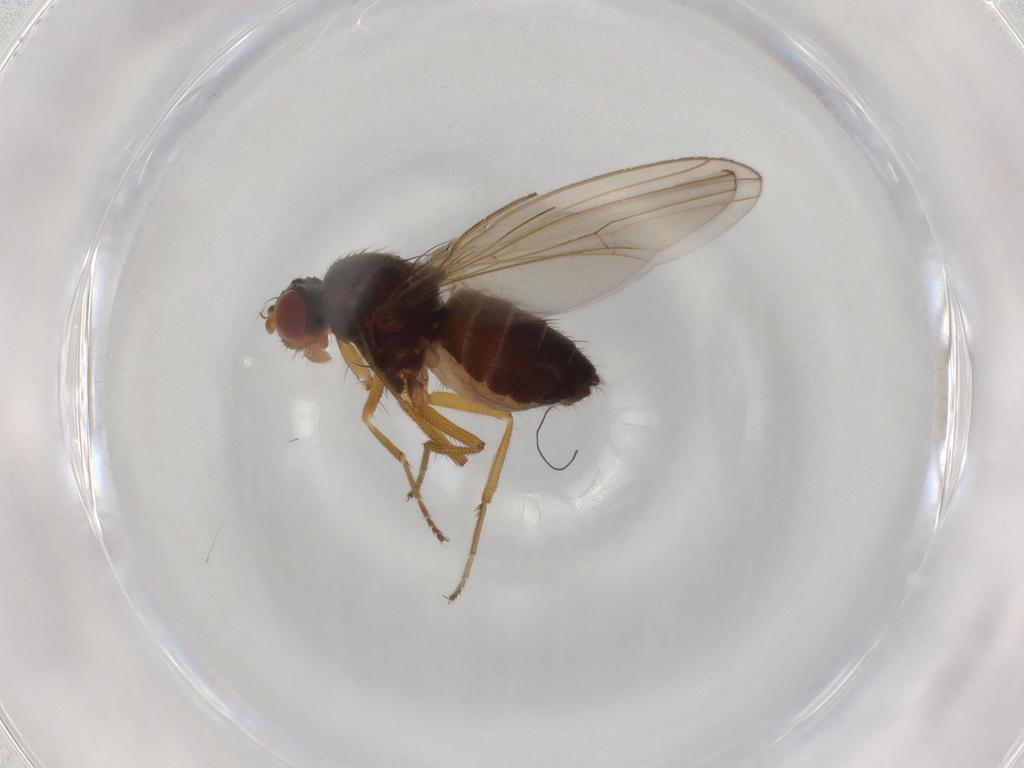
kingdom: Animalia
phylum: Arthropoda
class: Insecta
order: Diptera
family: Drosophilidae
